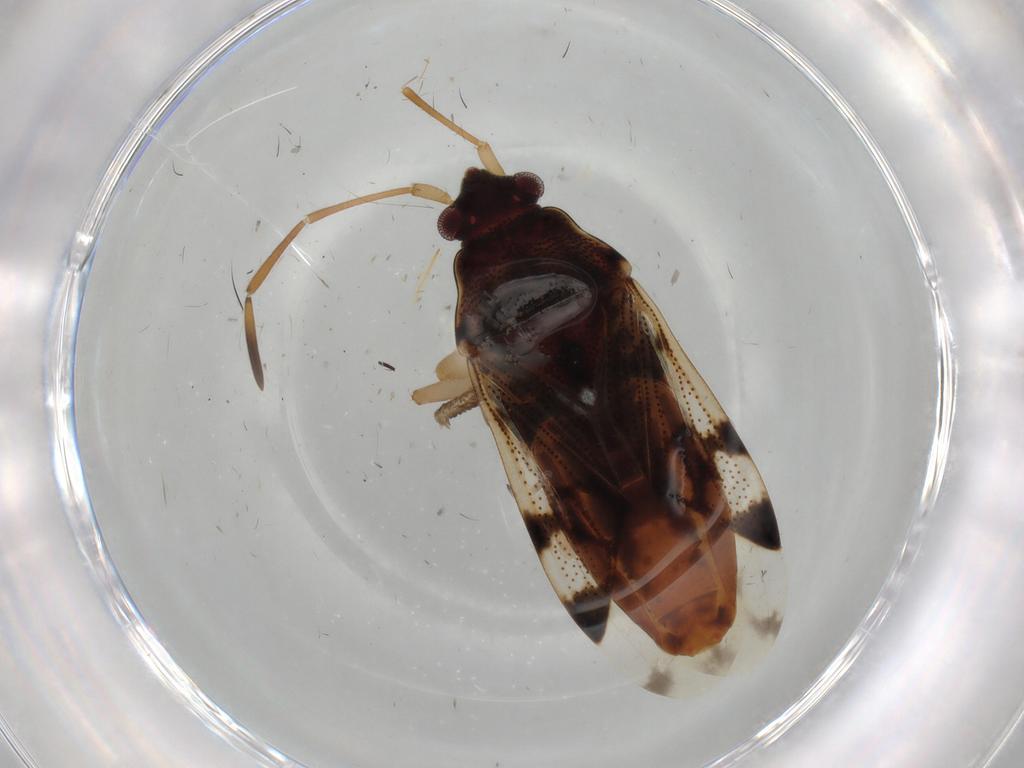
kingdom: Animalia
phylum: Arthropoda
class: Insecta
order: Hemiptera
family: Rhyparochromidae
